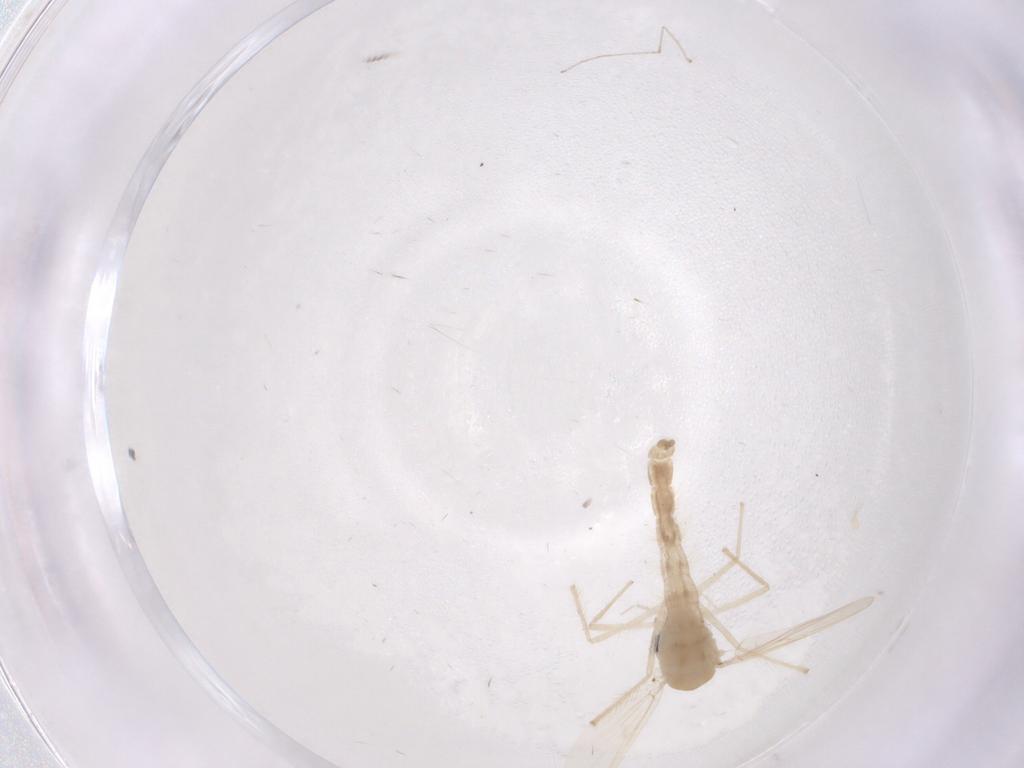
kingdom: Animalia
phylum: Arthropoda
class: Insecta
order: Diptera
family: Chironomidae
